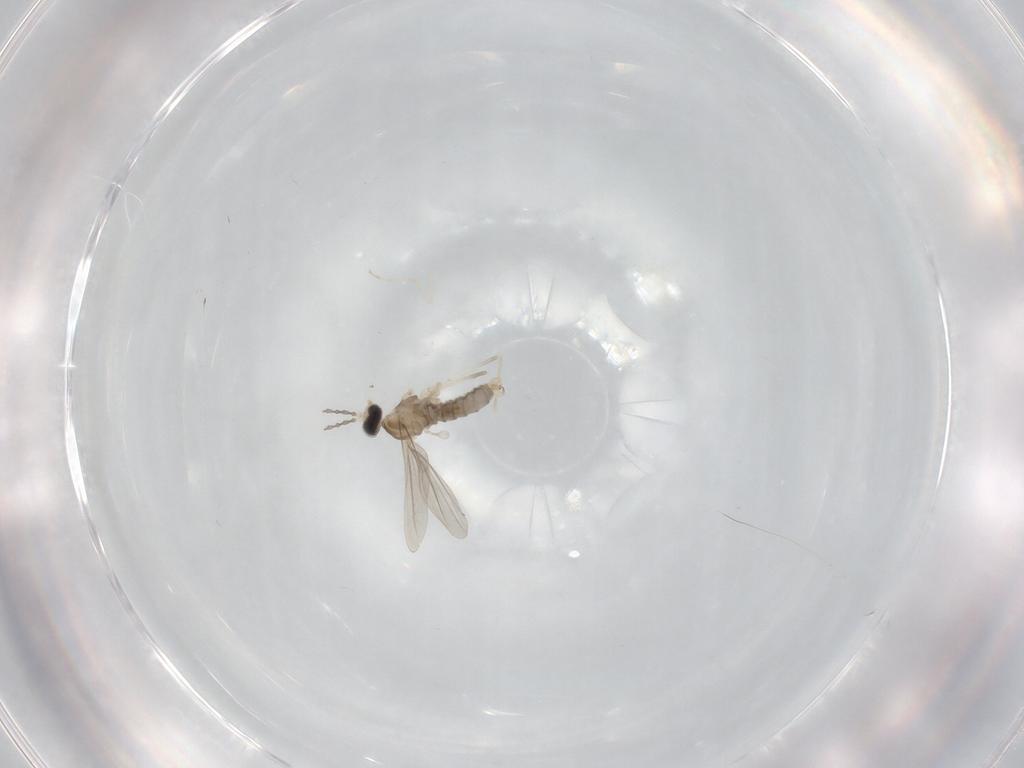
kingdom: Animalia
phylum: Arthropoda
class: Insecta
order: Diptera
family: Cecidomyiidae
